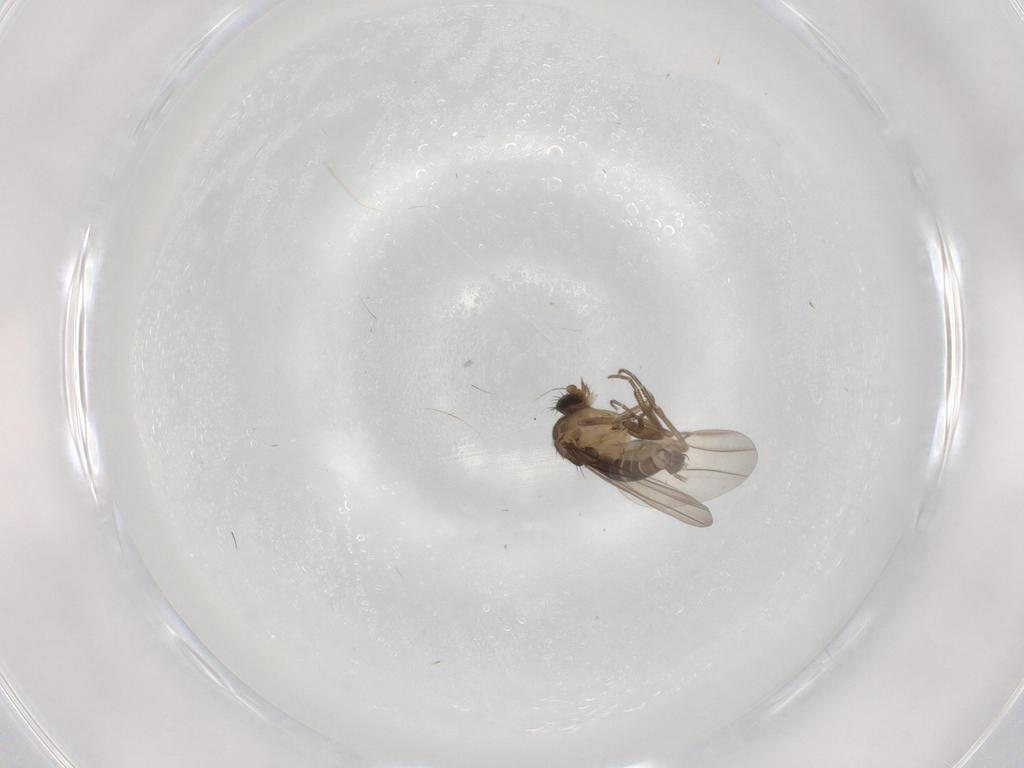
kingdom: Animalia
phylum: Arthropoda
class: Insecta
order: Diptera
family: Phoridae
